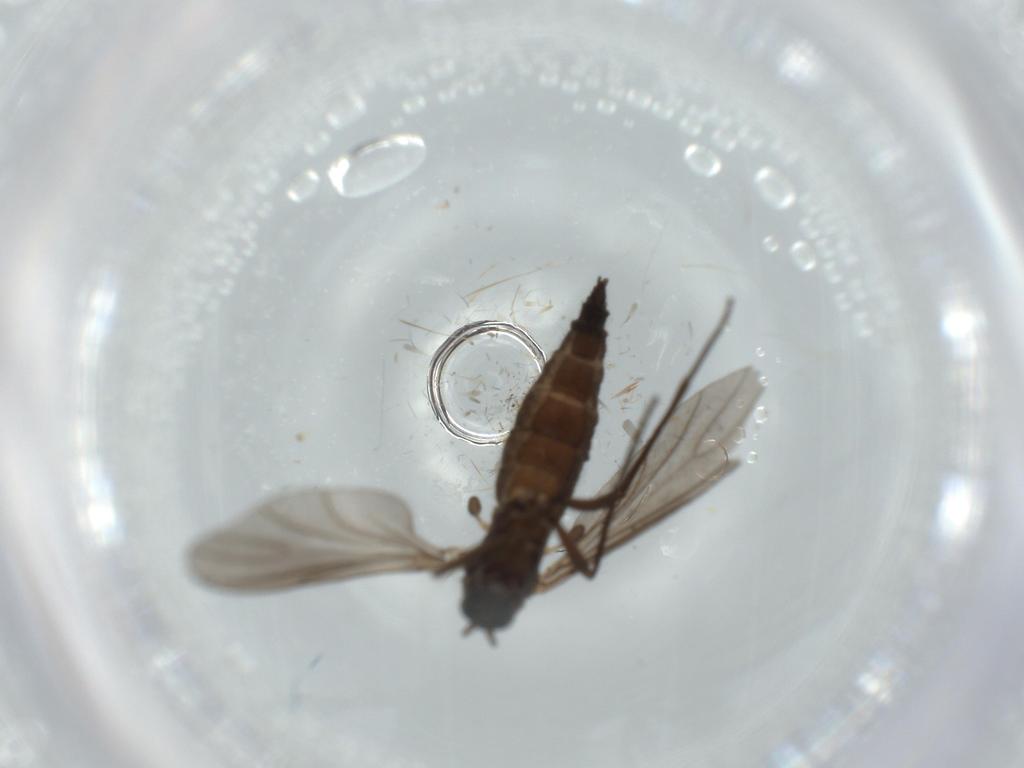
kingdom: Animalia
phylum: Arthropoda
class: Insecta
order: Diptera
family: Sciaridae
